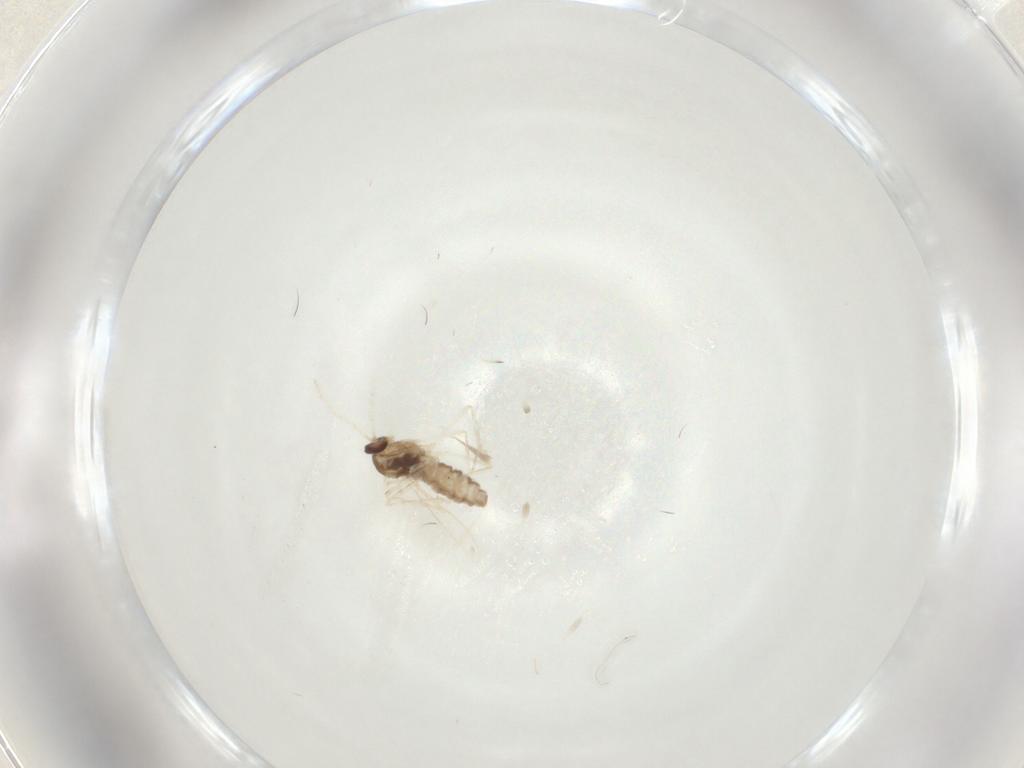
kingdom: Animalia
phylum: Arthropoda
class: Insecta
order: Diptera
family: Cecidomyiidae
